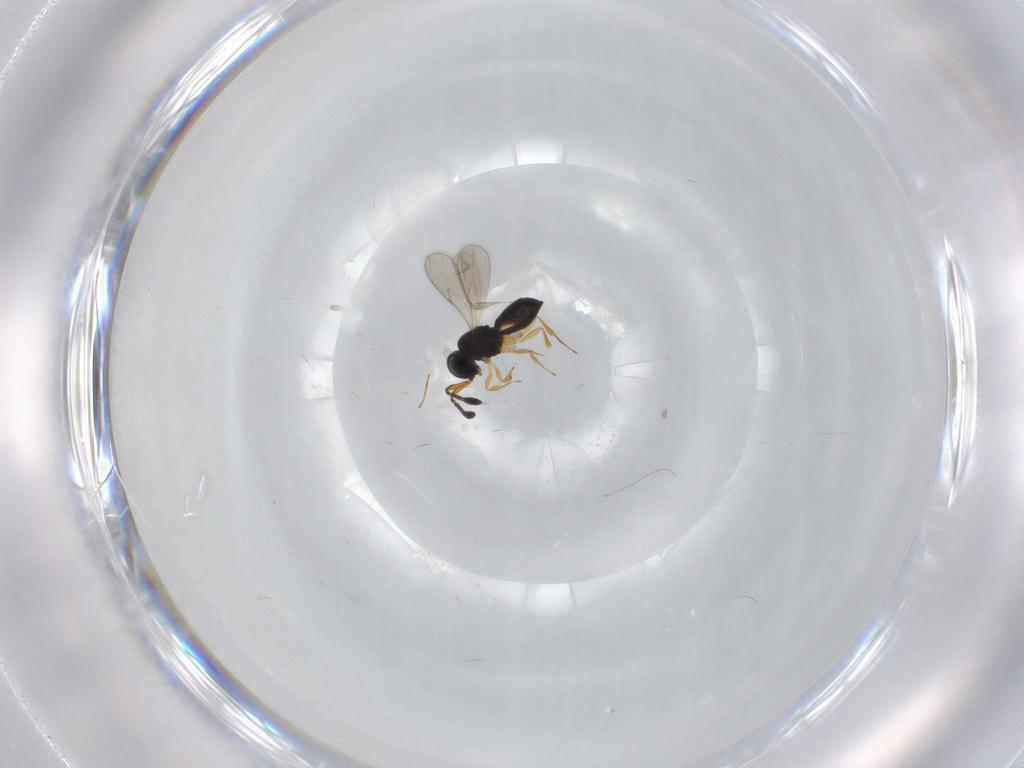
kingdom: Animalia
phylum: Arthropoda
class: Insecta
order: Hymenoptera
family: Scelionidae
